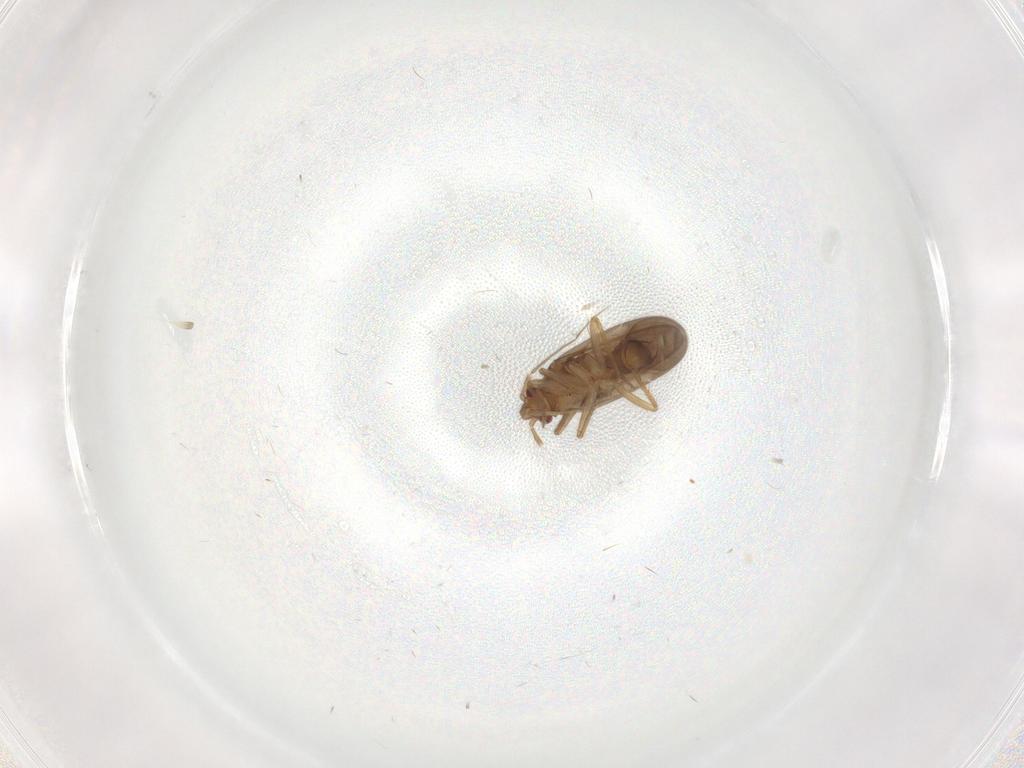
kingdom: Animalia
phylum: Arthropoda
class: Insecta
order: Hemiptera
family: Ceratocombidae
